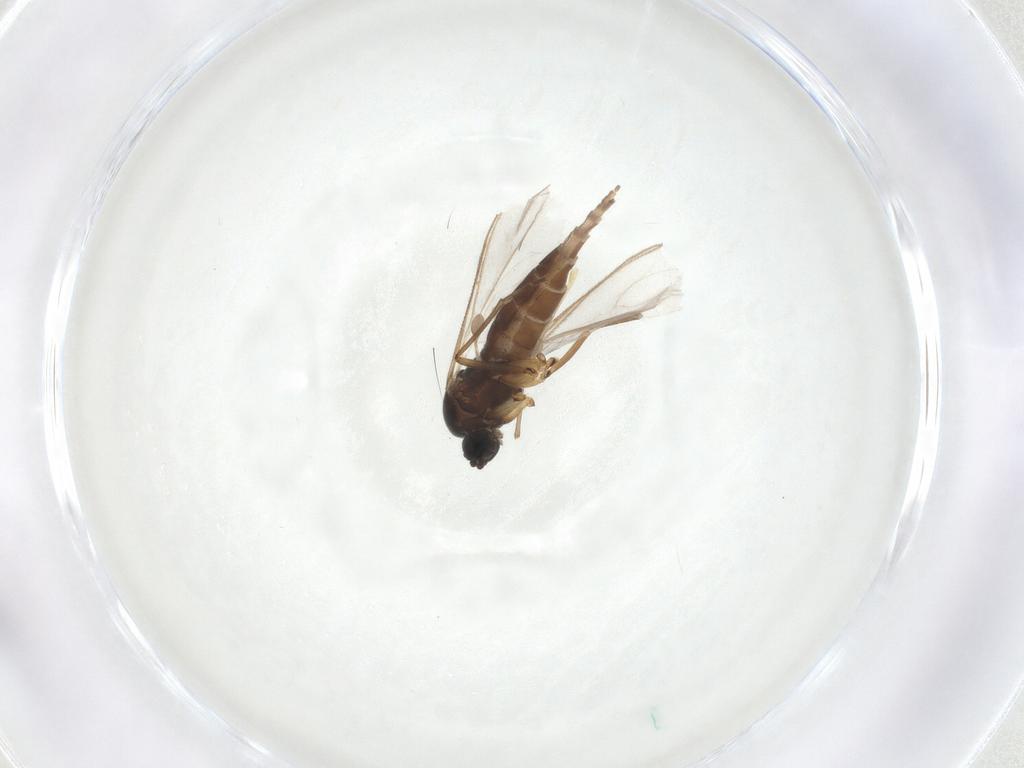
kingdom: Animalia
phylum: Arthropoda
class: Insecta
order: Diptera
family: Sciaridae
